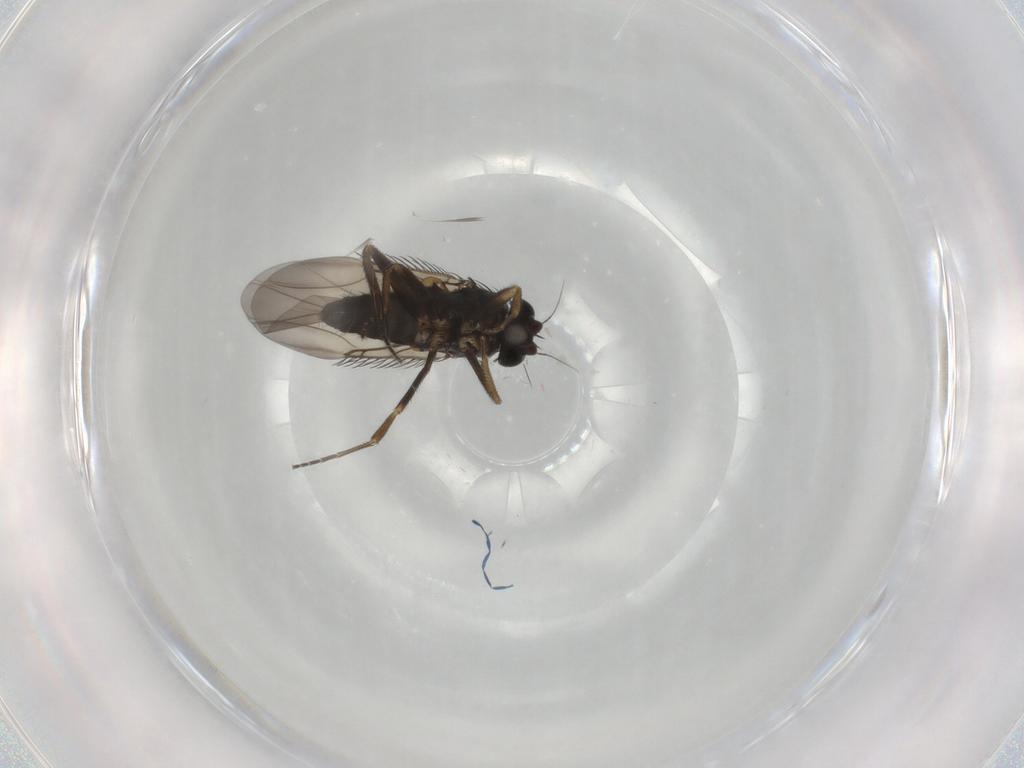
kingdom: Animalia
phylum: Arthropoda
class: Insecta
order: Diptera
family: Phoridae
